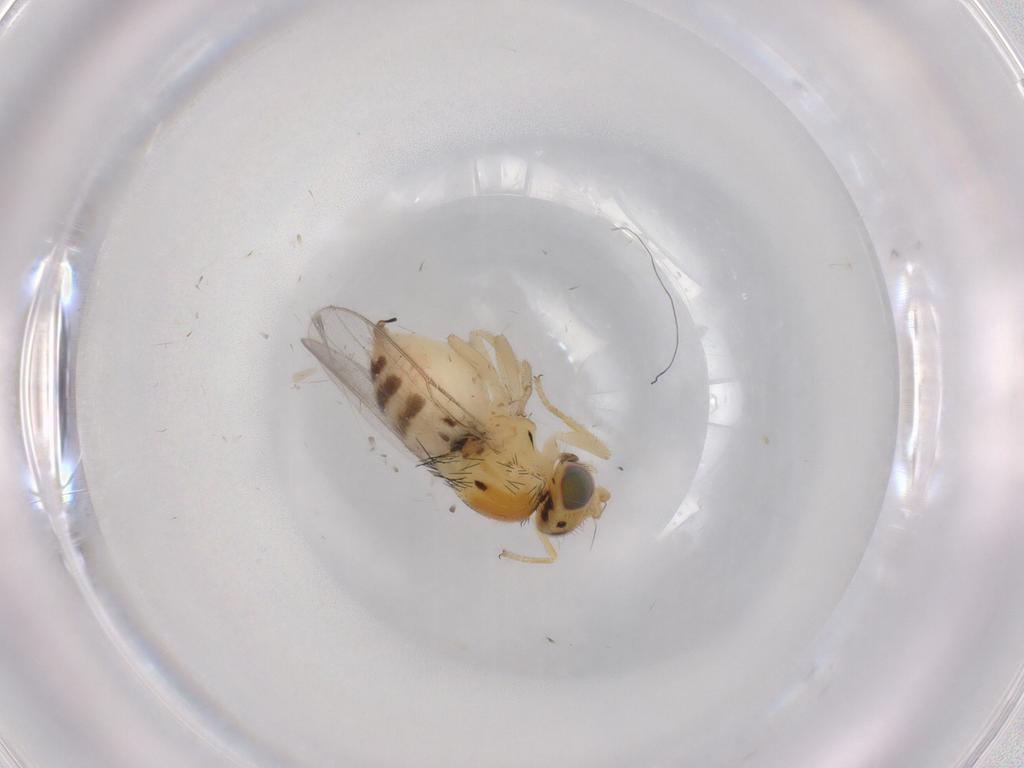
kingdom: Animalia
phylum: Arthropoda
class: Insecta
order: Diptera
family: Chloropidae
